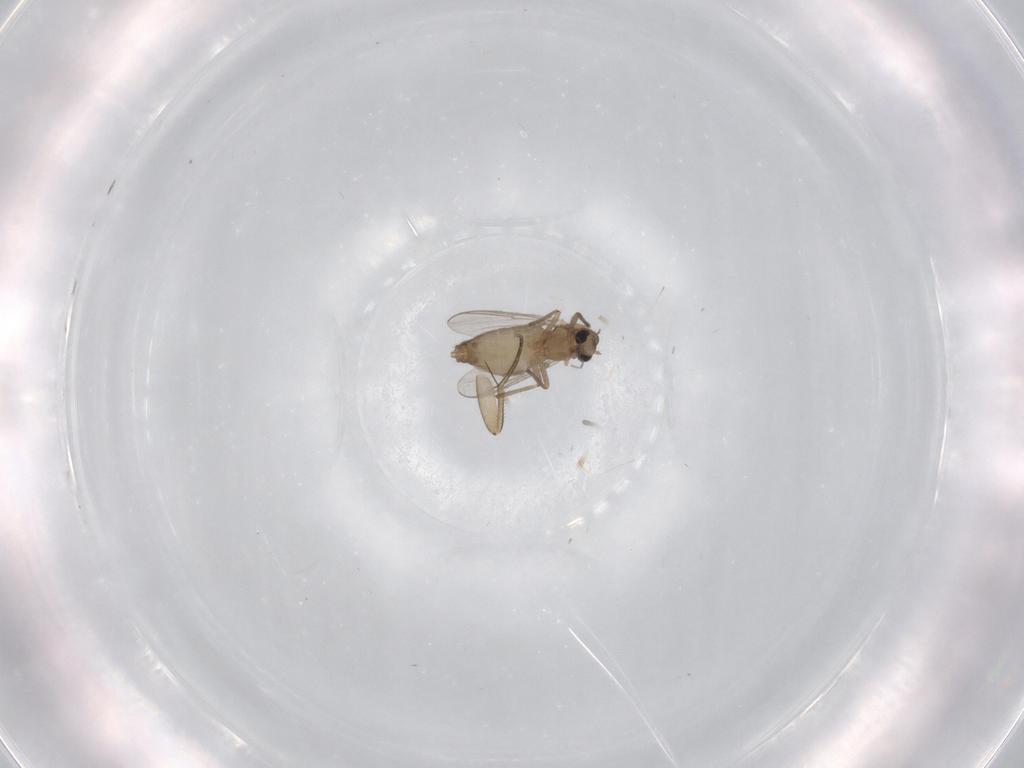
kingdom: Animalia
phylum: Arthropoda
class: Insecta
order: Diptera
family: Chironomidae
